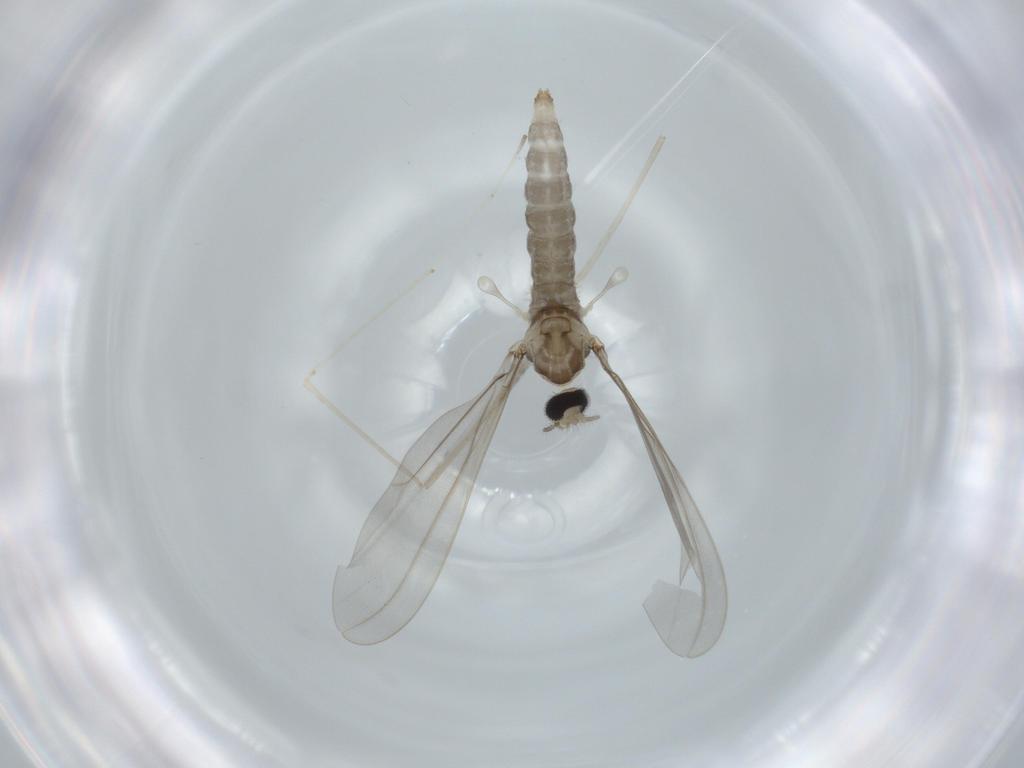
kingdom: Animalia
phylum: Arthropoda
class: Insecta
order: Diptera
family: Cecidomyiidae
